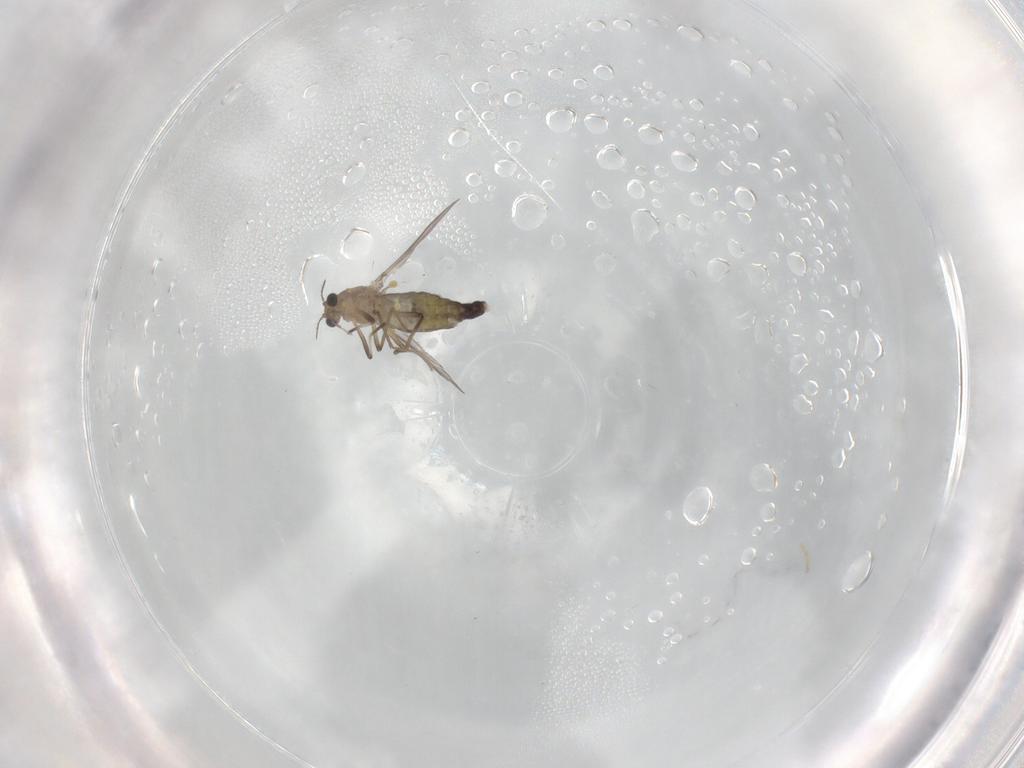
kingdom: Animalia
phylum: Arthropoda
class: Insecta
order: Diptera
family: Chironomidae
